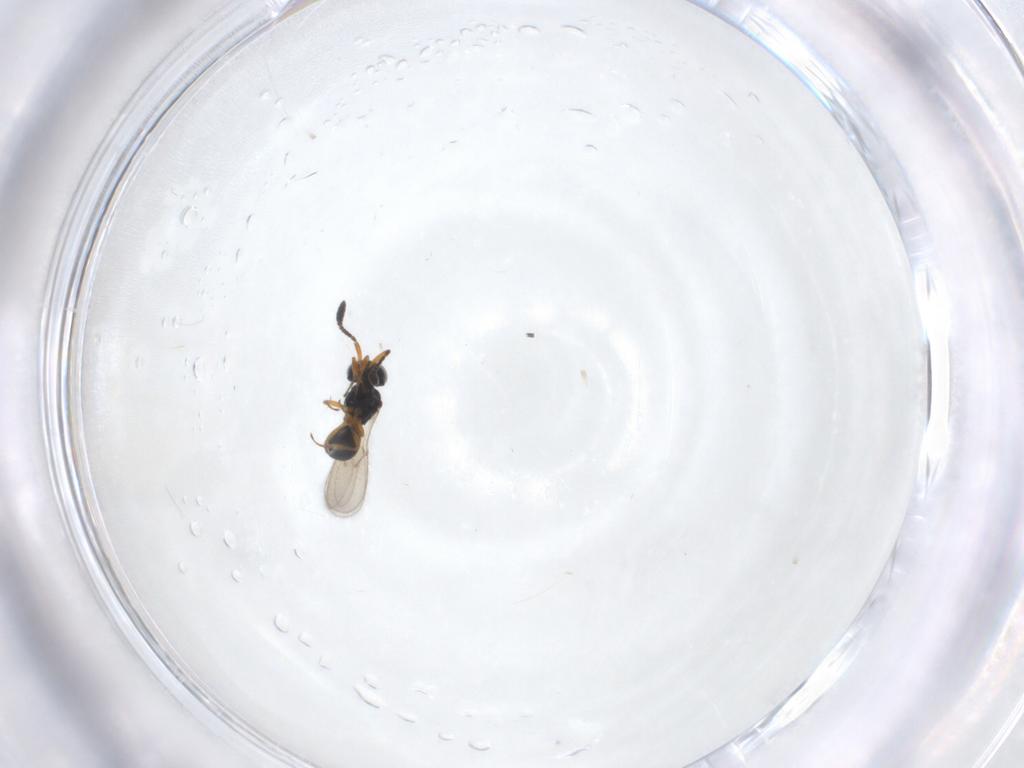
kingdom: Animalia
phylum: Arthropoda
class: Insecta
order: Hymenoptera
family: Scelionidae
